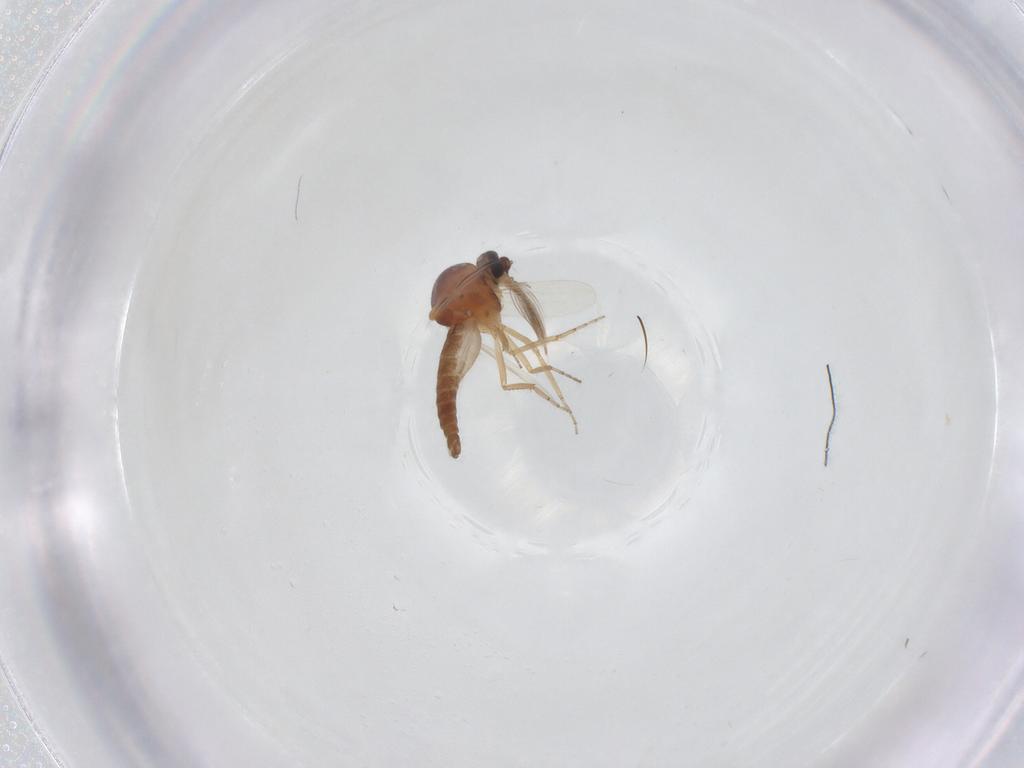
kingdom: Animalia
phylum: Arthropoda
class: Insecta
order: Diptera
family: Ceratopogonidae
